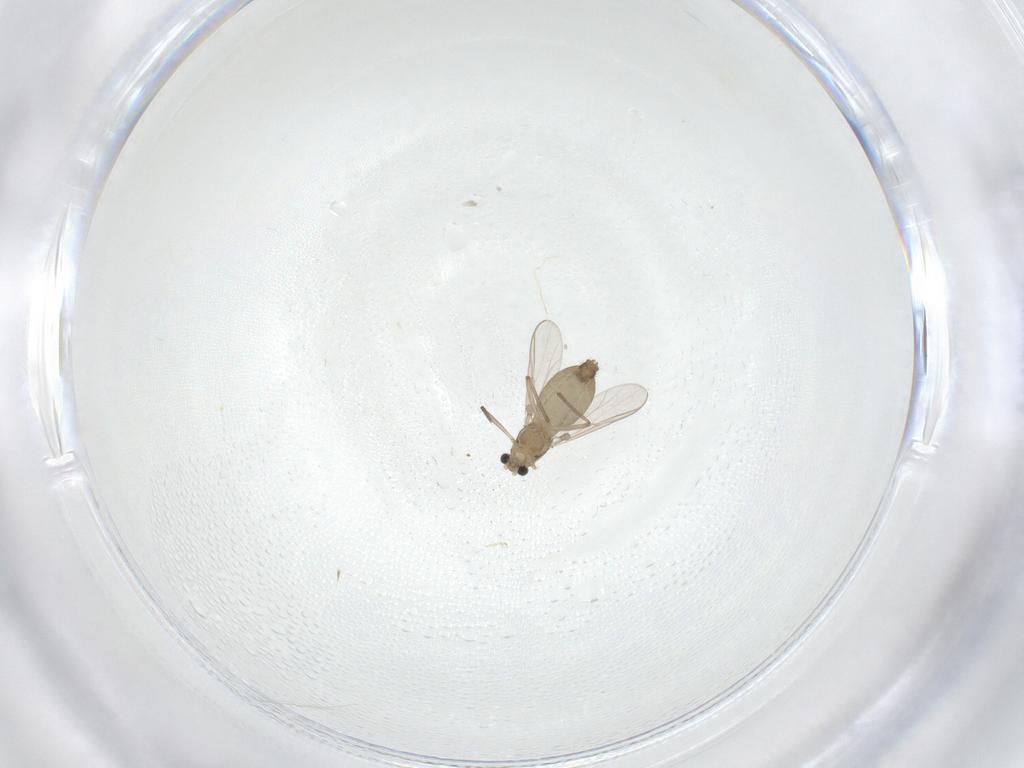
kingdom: Animalia
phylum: Arthropoda
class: Insecta
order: Diptera
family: Chironomidae
